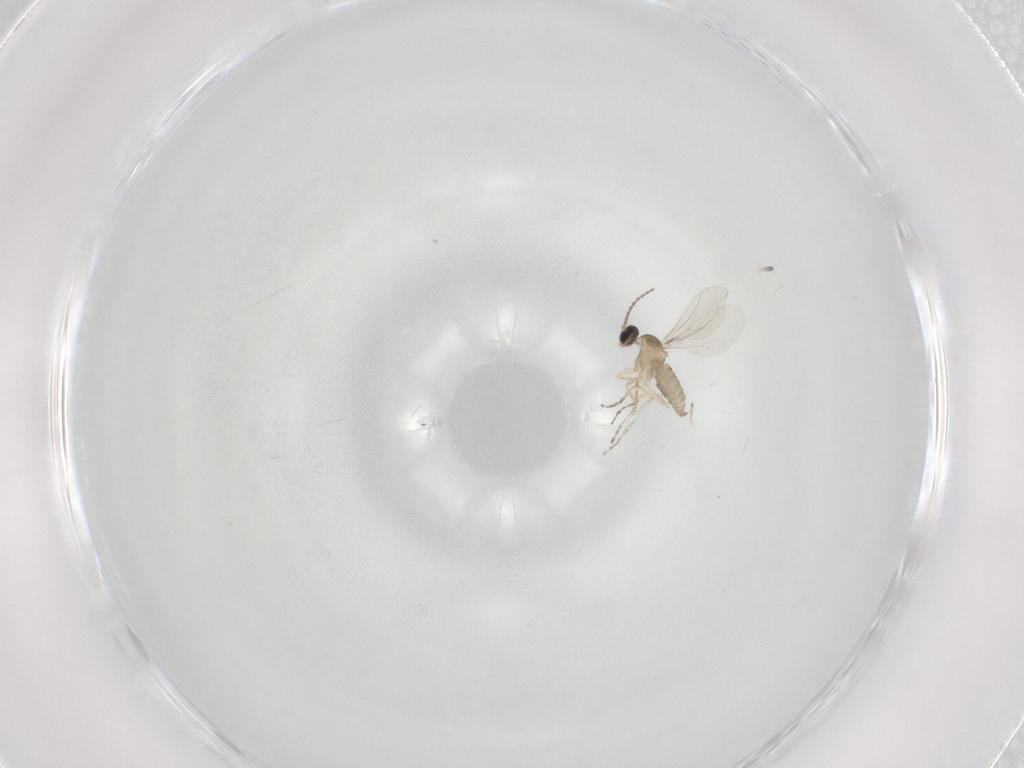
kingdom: Animalia
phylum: Arthropoda
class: Insecta
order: Diptera
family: Cecidomyiidae
